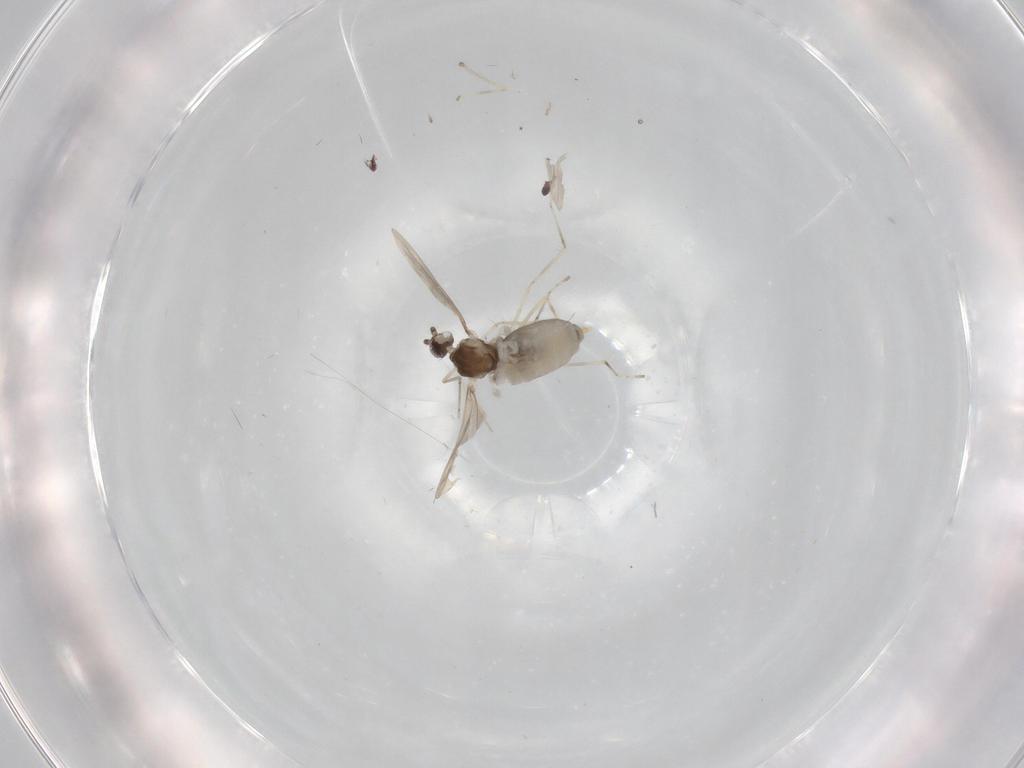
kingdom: Animalia
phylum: Arthropoda
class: Insecta
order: Diptera
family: Cecidomyiidae
